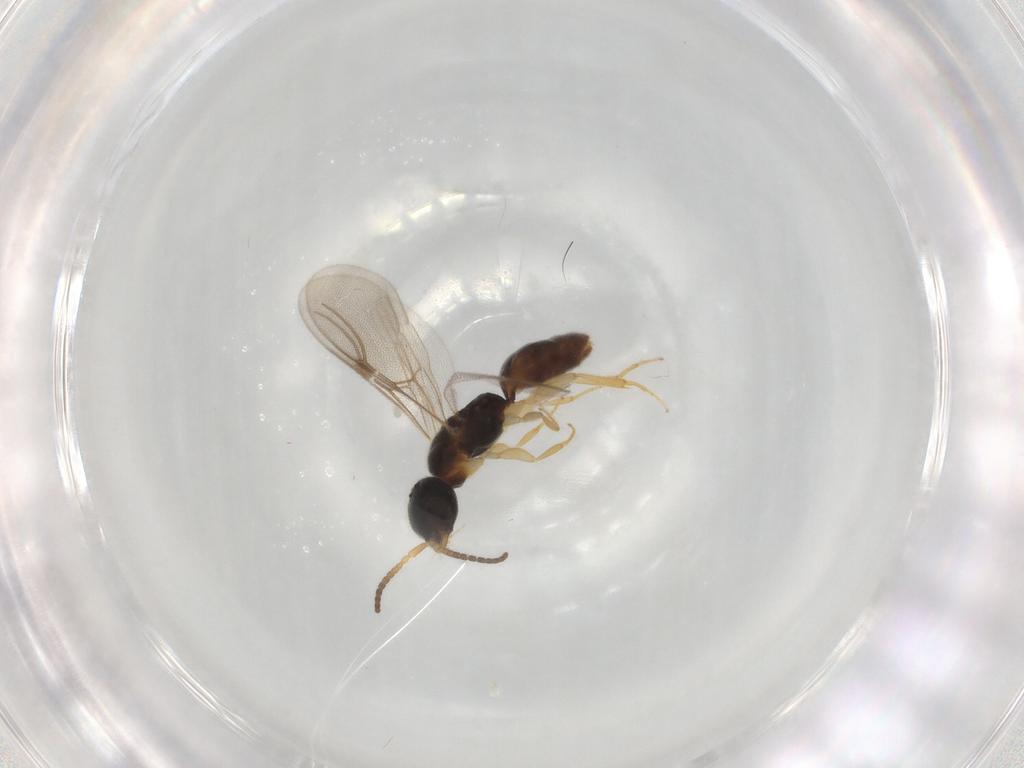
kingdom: Animalia
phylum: Arthropoda
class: Insecta
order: Hymenoptera
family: Bethylidae
